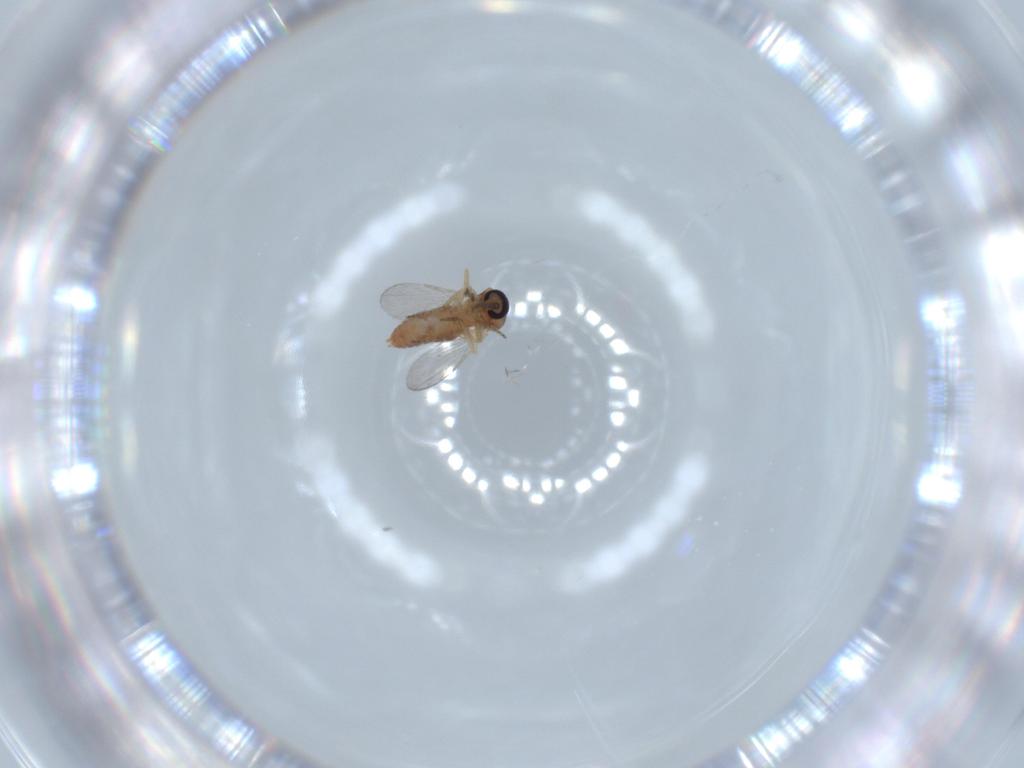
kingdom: Animalia
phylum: Arthropoda
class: Insecta
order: Diptera
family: Ceratopogonidae
